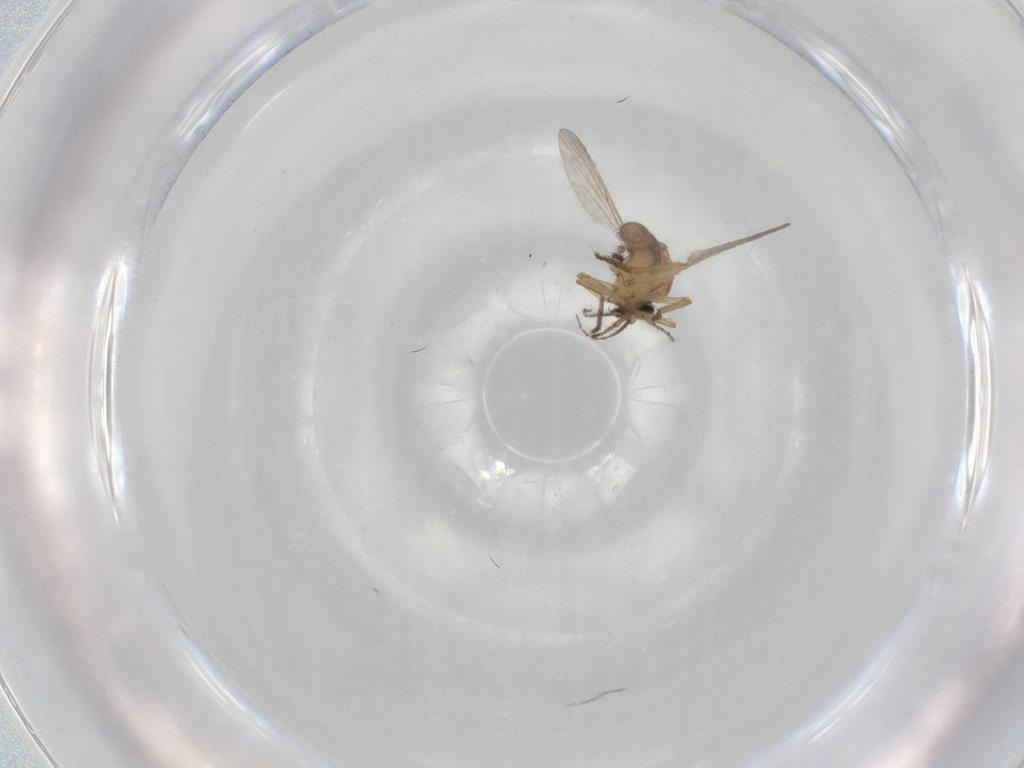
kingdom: Animalia
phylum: Arthropoda
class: Insecta
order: Diptera
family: Ceratopogonidae
